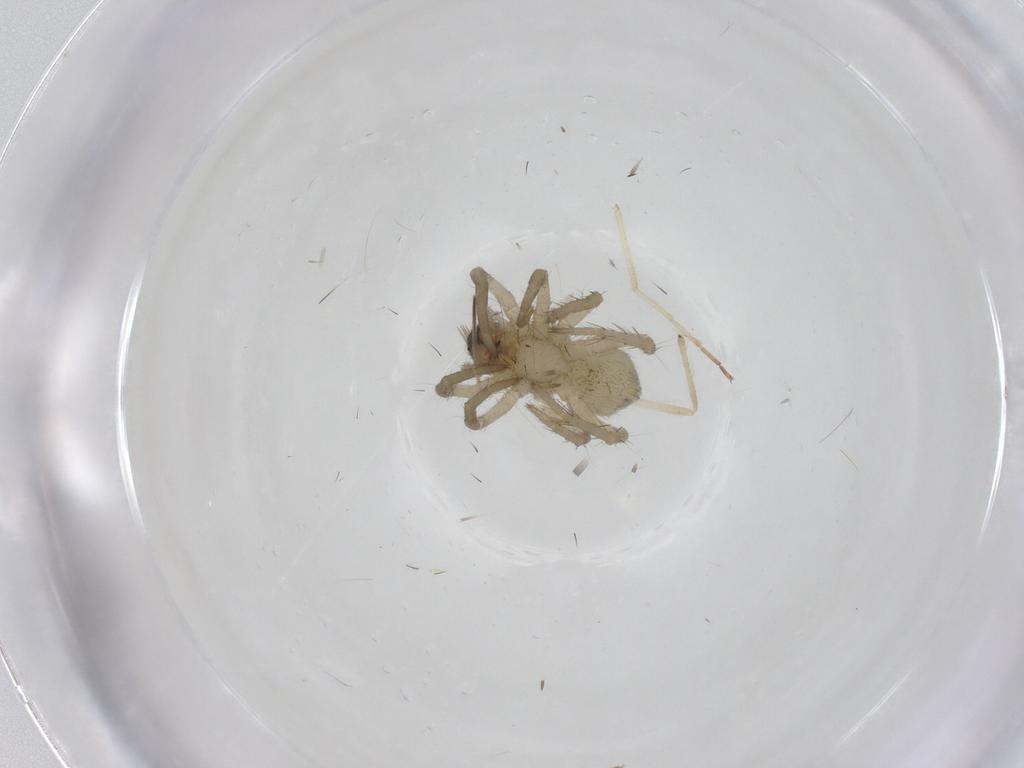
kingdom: Animalia
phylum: Arthropoda
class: Arachnida
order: Araneae
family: Lycosidae
